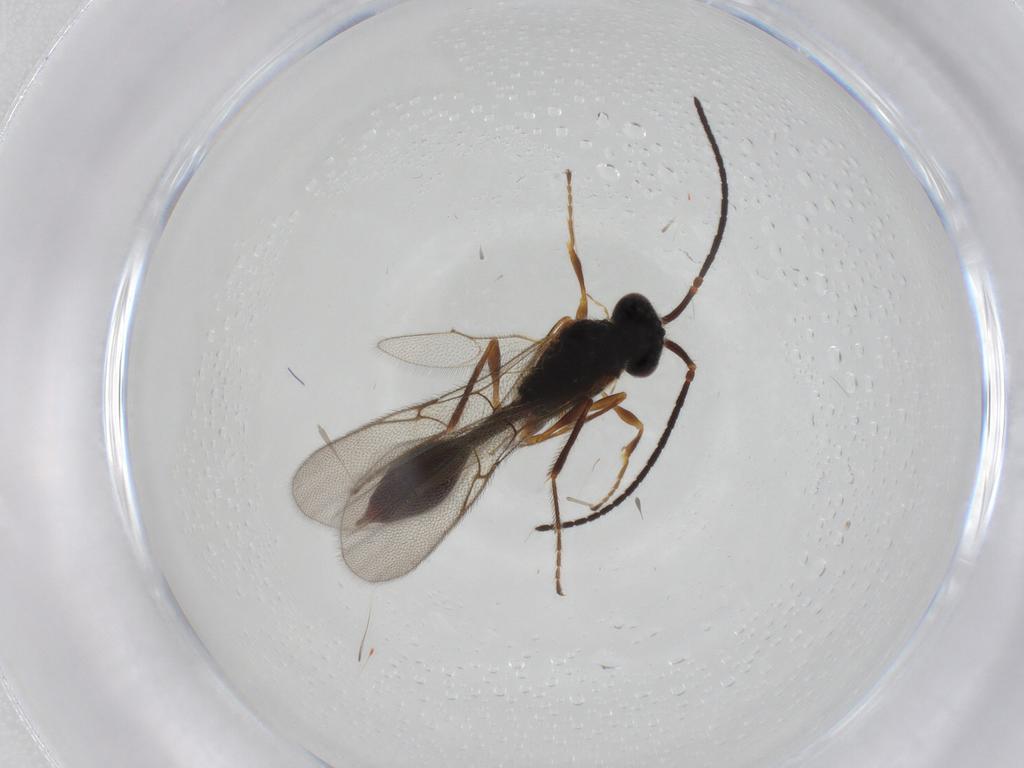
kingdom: Animalia
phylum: Arthropoda
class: Insecta
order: Hymenoptera
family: Diapriidae
